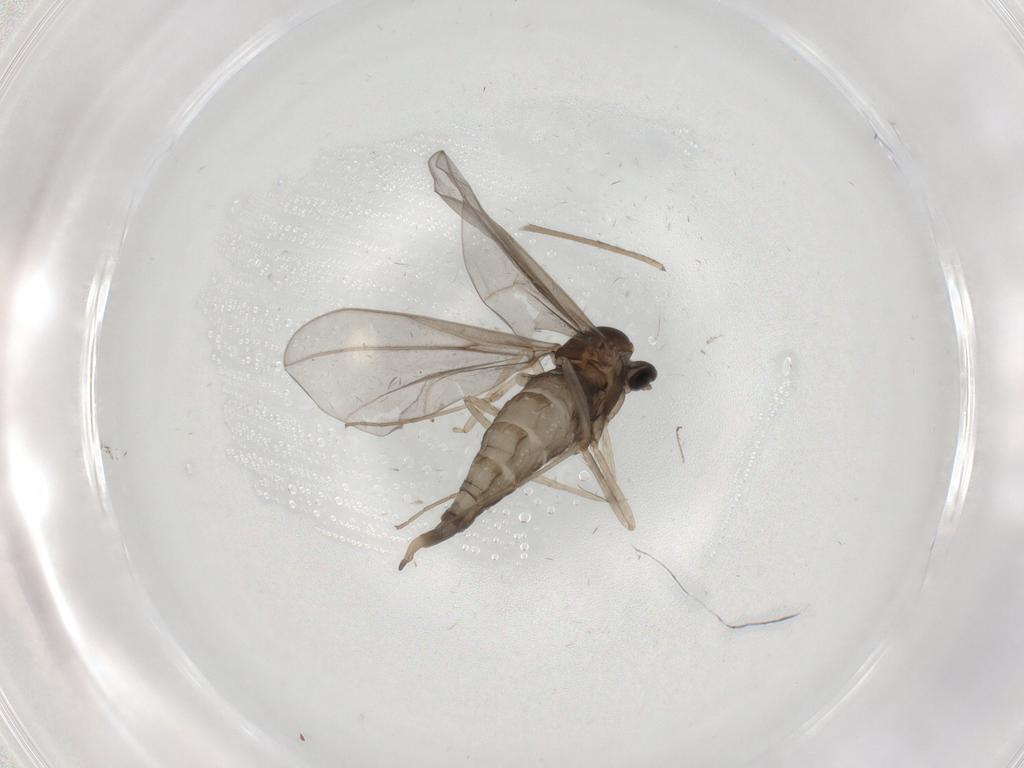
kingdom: Animalia
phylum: Arthropoda
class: Insecta
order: Diptera
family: Cecidomyiidae
